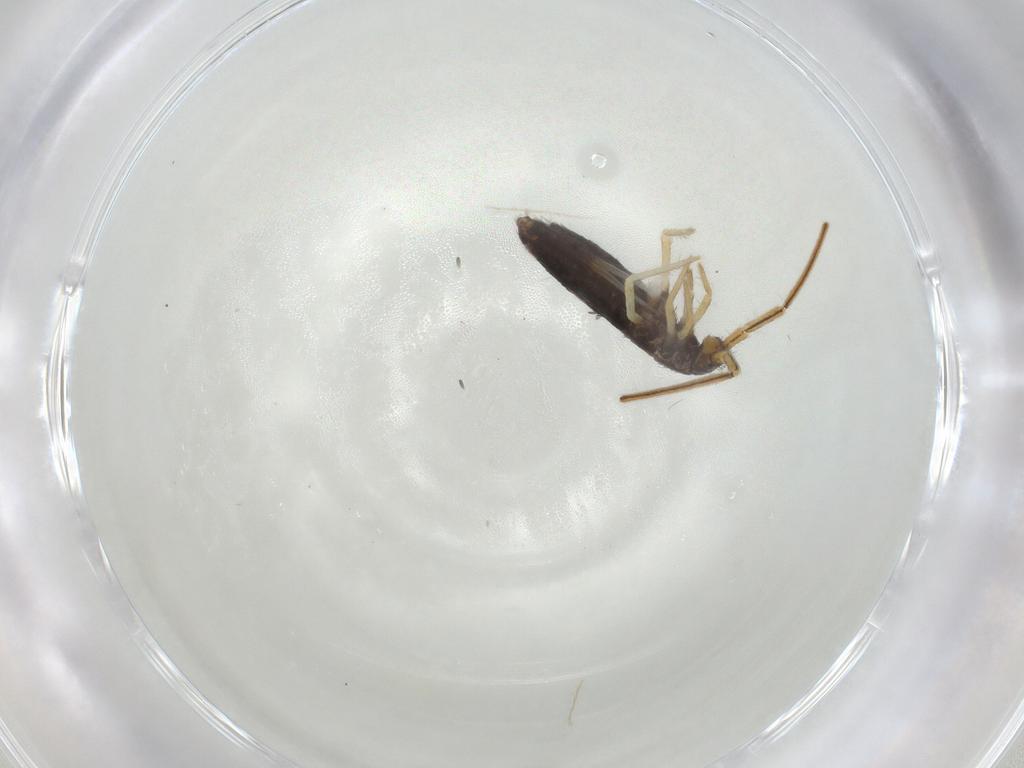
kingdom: Animalia
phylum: Arthropoda
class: Collembola
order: Entomobryomorpha
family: Entomobryidae
